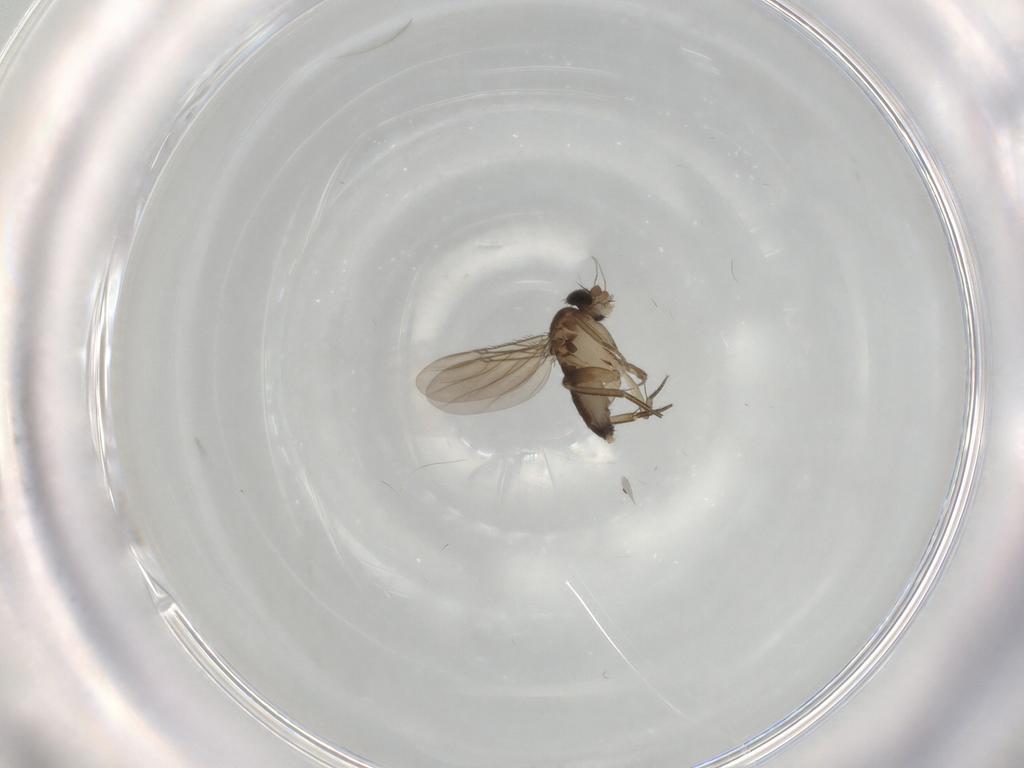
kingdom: Animalia
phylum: Arthropoda
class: Insecta
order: Diptera
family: Phoridae
